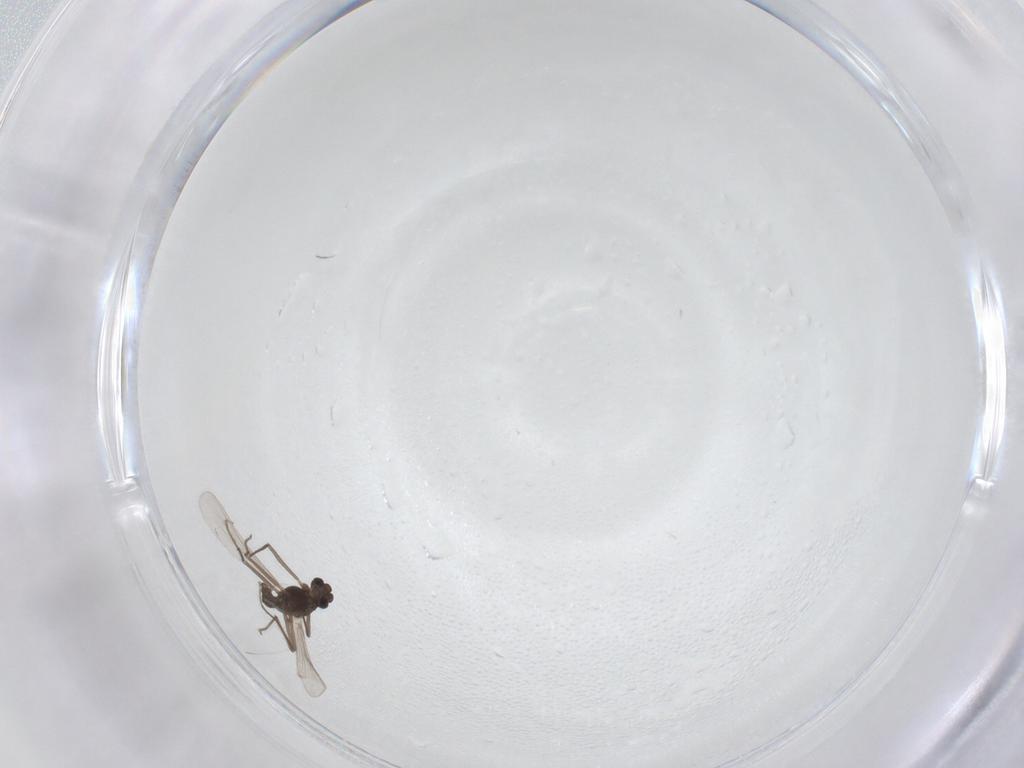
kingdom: Animalia
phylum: Arthropoda
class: Insecta
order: Diptera
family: Chironomidae
